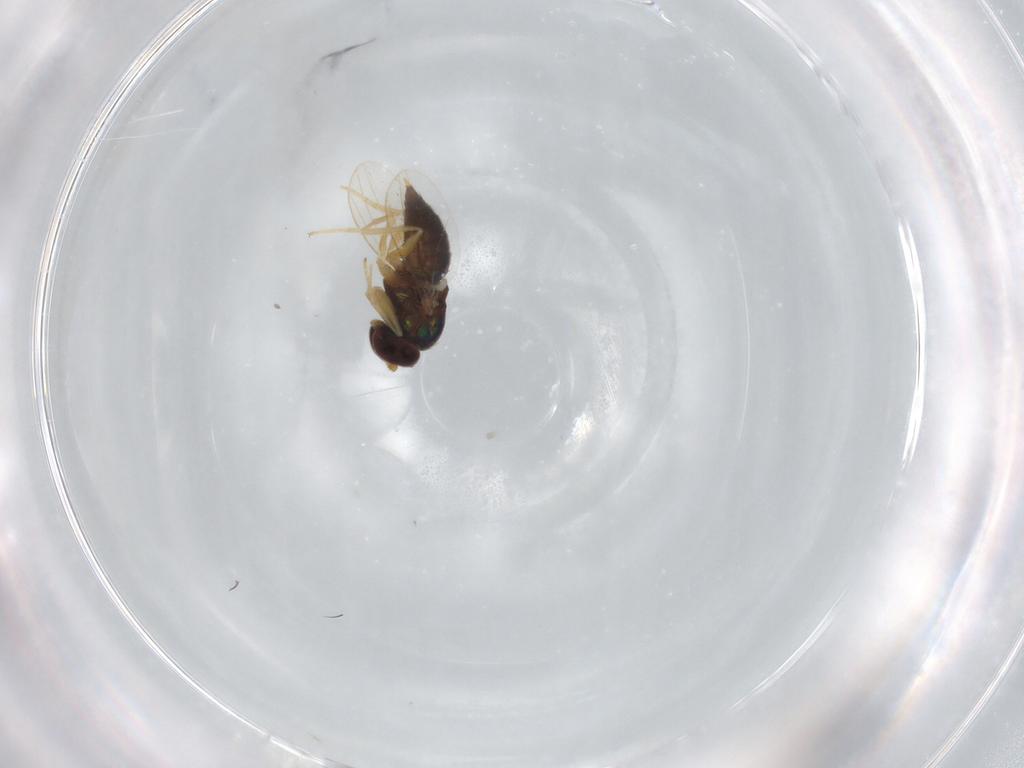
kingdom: Animalia
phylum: Arthropoda
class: Insecta
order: Diptera
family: Dolichopodidae
